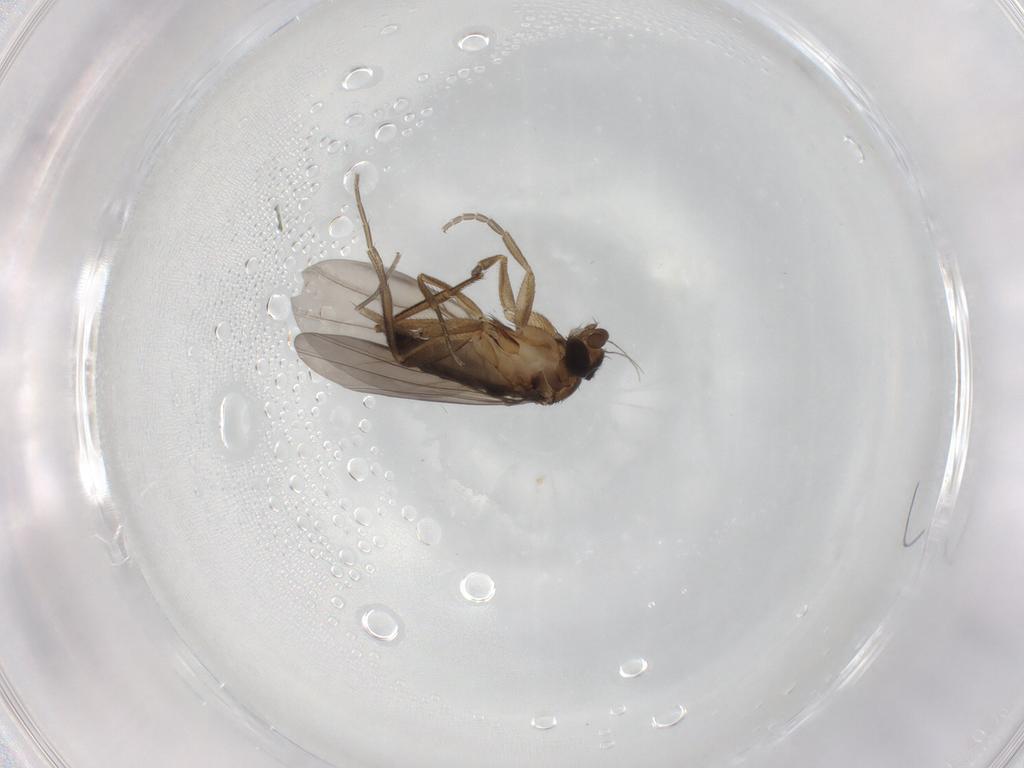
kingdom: Animalia
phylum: Arthropoda
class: Insecta
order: Diptera
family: Phoridae
